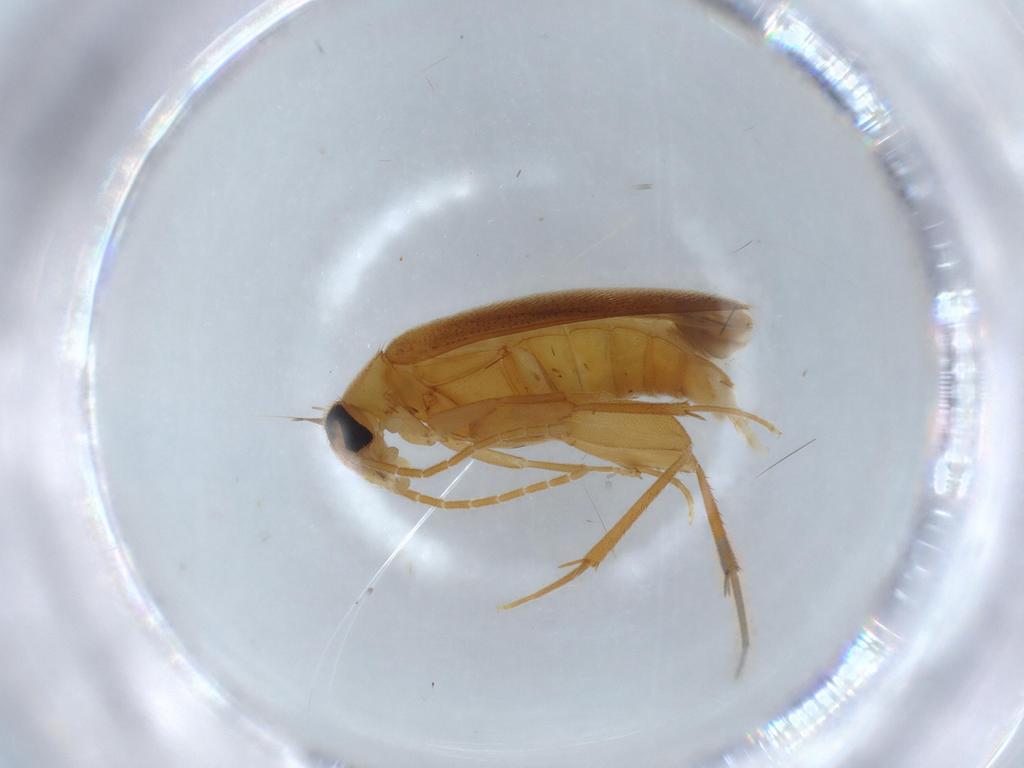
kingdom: Animalia
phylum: Arthropoda
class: Insecta
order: Coleoptera
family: Scraptiidae
